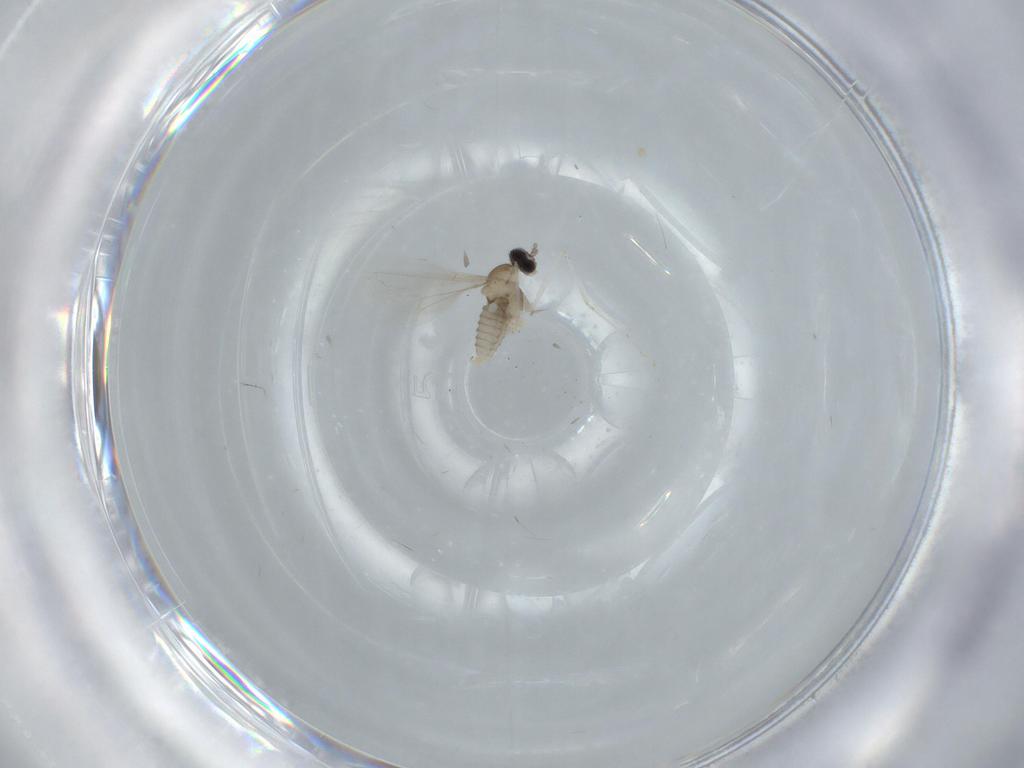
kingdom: Animalia
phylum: Arthropoda
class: Insecta
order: Diptera
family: Cecidomyiidae
